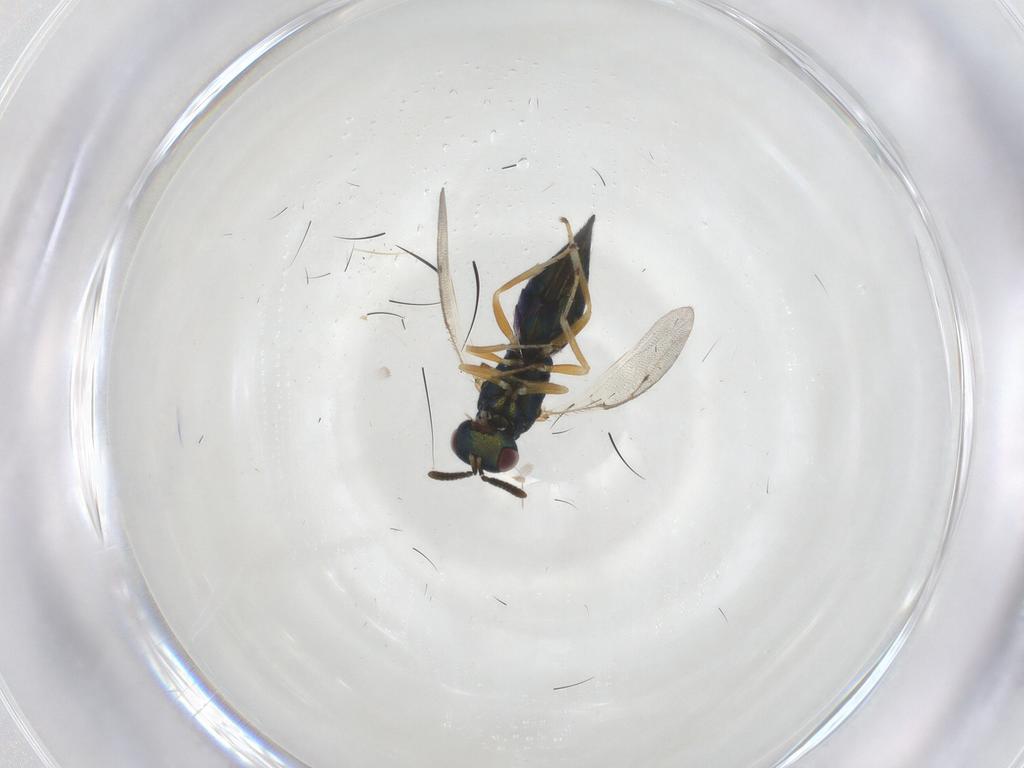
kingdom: Animalia
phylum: Arthropoda
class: Insecta
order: Hymenoptera
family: Pteromalidae
